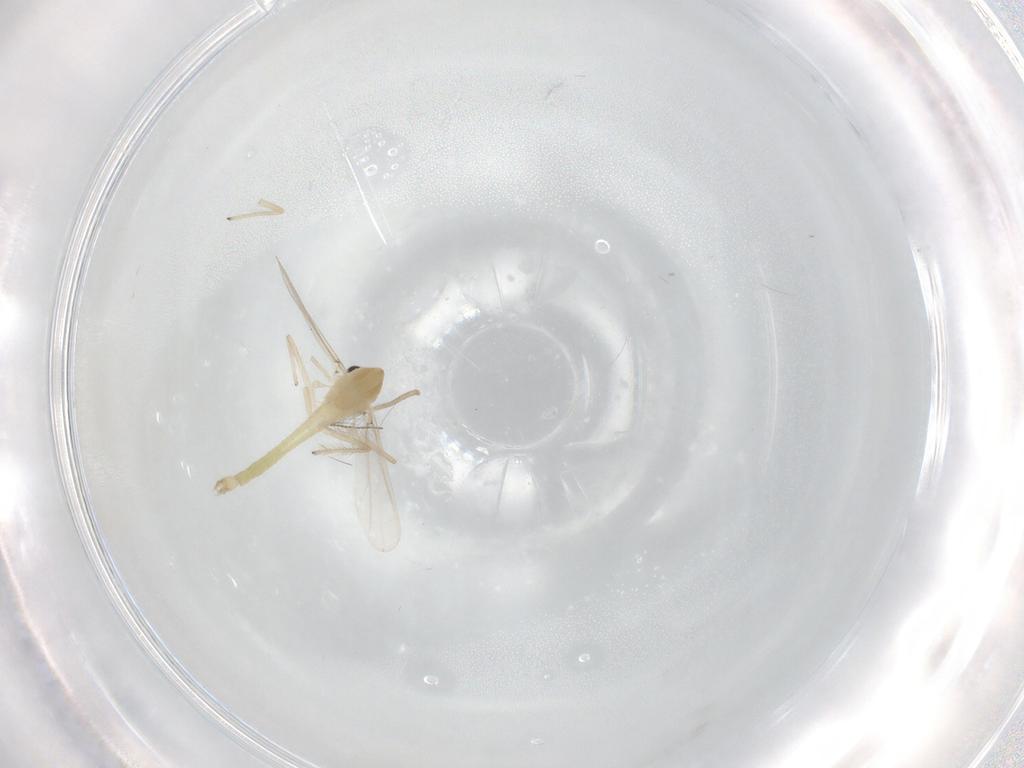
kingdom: Animalia
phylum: Arthropoda
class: Insecta
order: Diptera
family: Chironomidae
